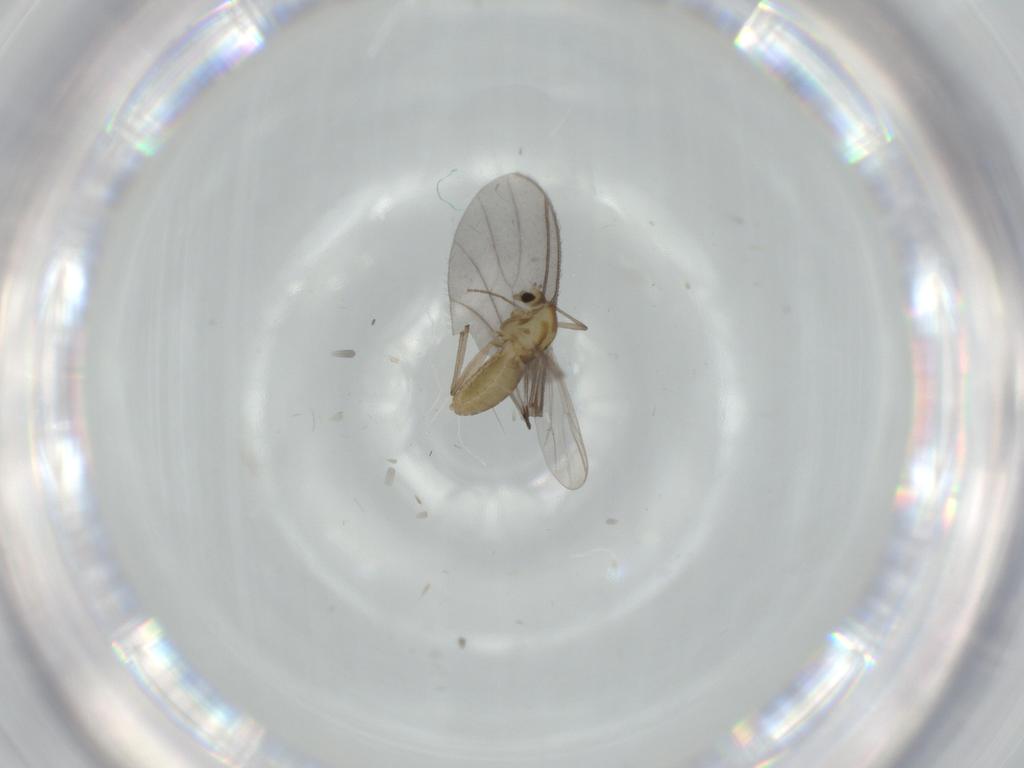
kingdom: Animalia
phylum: Arthropoda
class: Insecta
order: Diptera
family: Chironomidae
